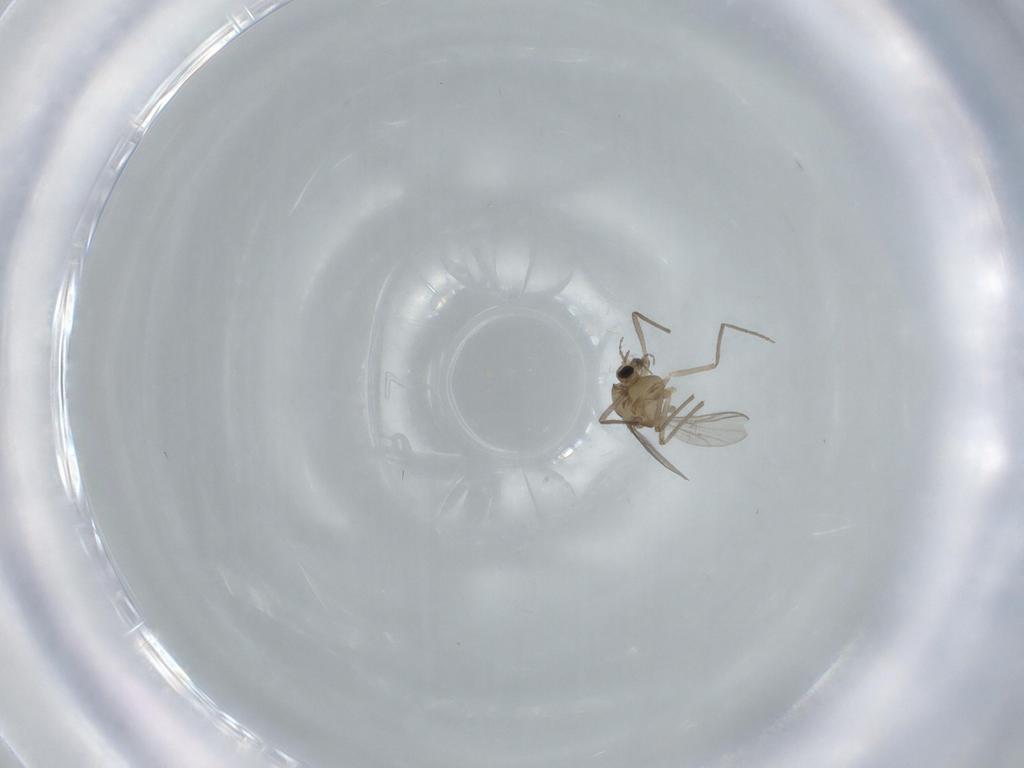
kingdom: Animalia
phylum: Arthropoda
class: Insecta
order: Diptera
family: Chironomidae
